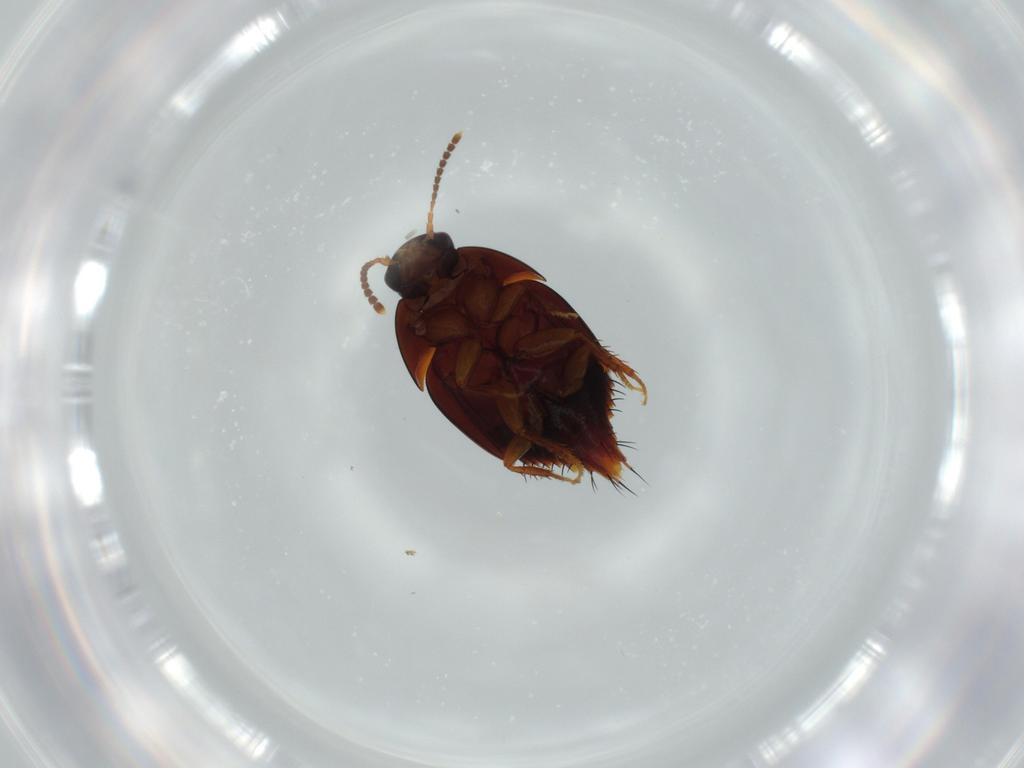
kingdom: Animalia
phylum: Arthropoda
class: Insecta
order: Coleoptera
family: Staphylinidae
